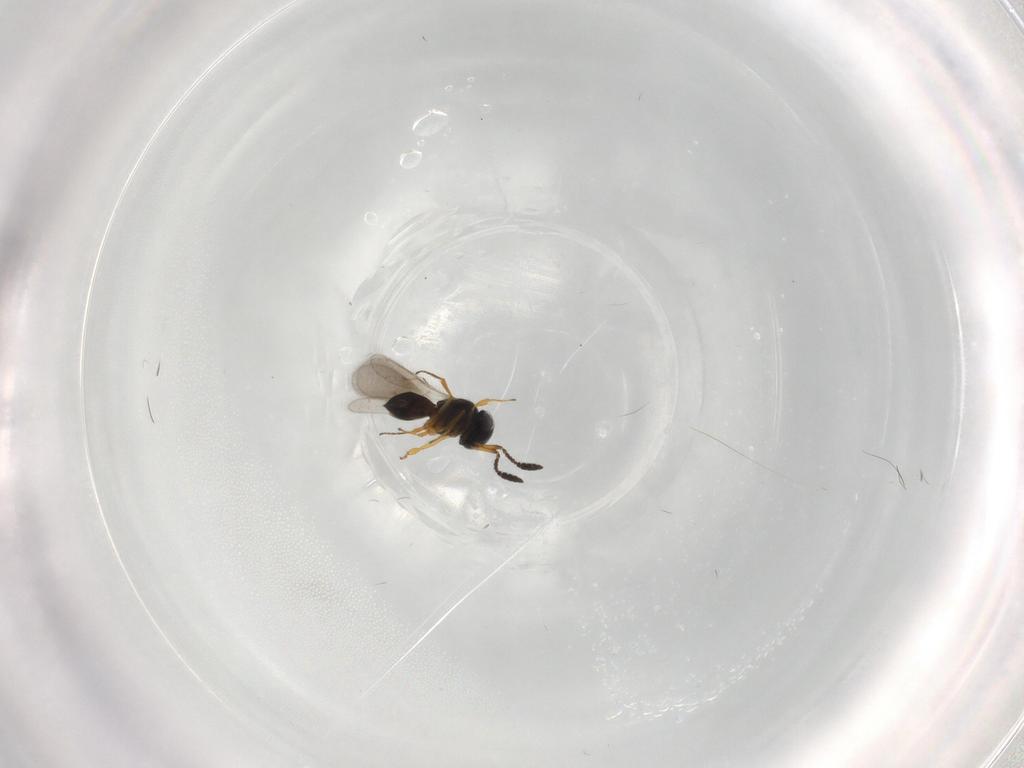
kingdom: Animalia
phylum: Arthropoda
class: Insecta
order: Hymenoptera
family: Scelionidae
